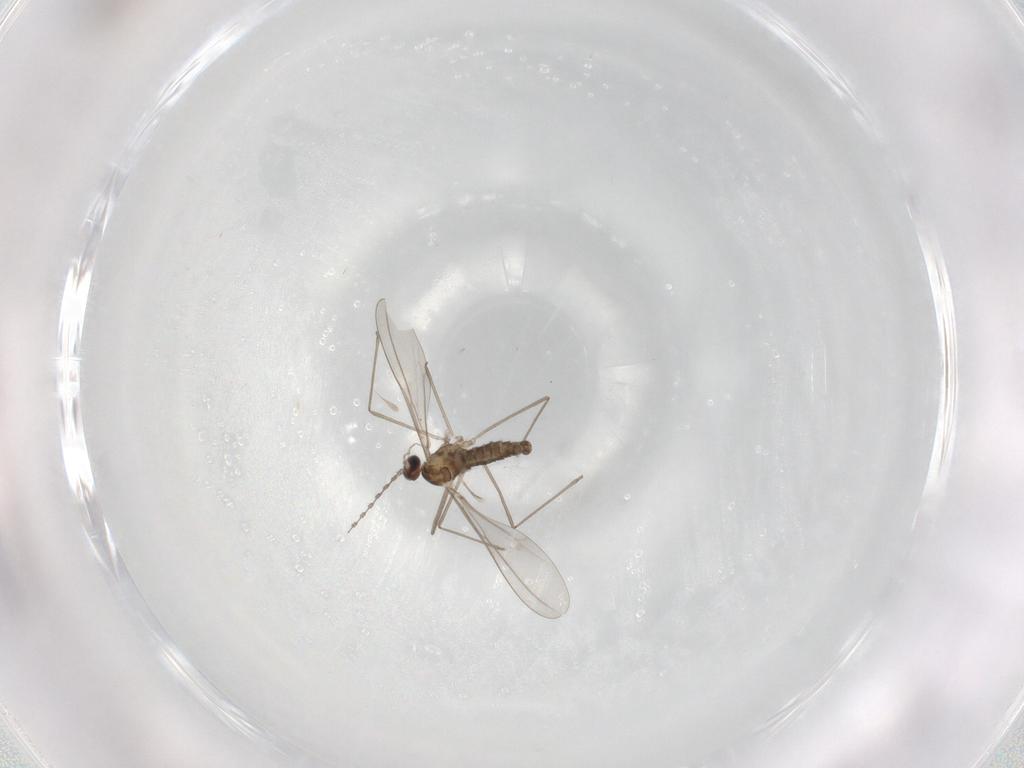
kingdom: Animalia
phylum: Arthropoda
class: Insecta
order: Diptera
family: Cecidomyiidae
